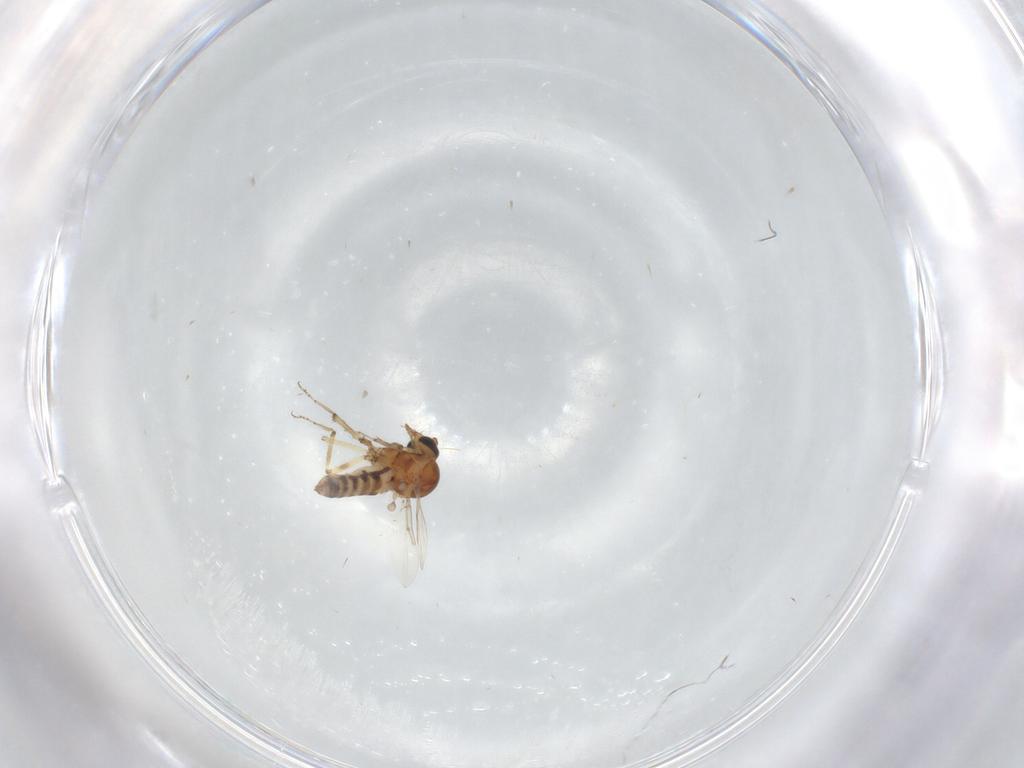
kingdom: Animalia
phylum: Arthropoda
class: Insecta
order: Diptera
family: Ceratopogonidae
